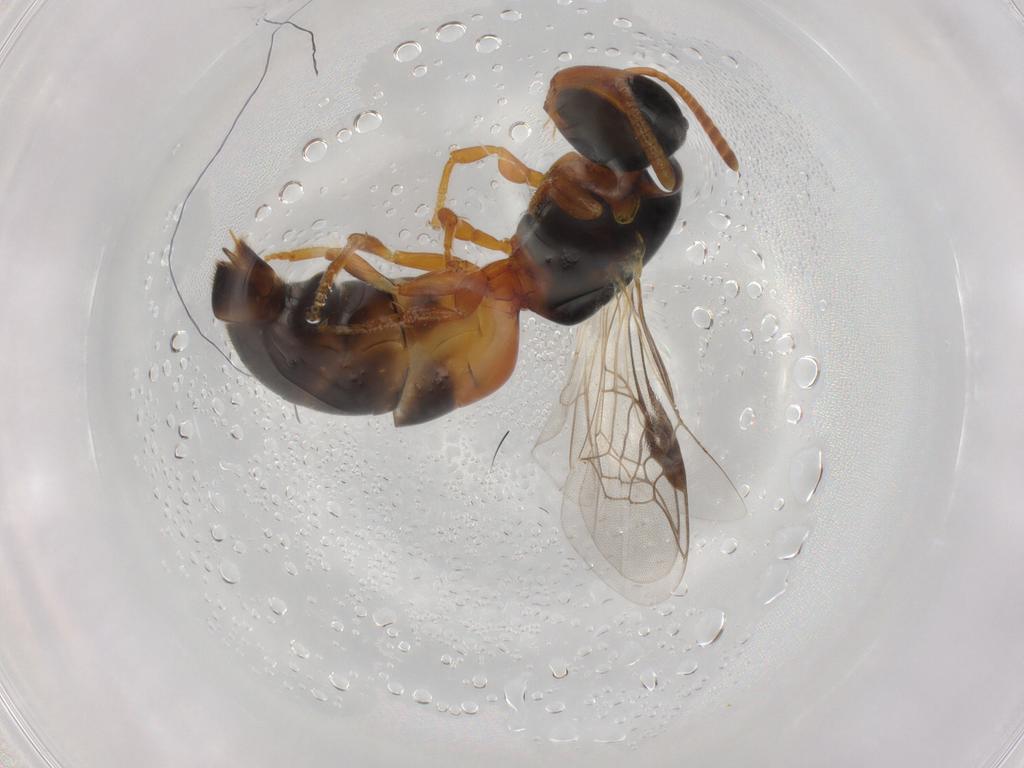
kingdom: Animalia
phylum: Arthropoda
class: Insecta
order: Hymenoptera
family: Colletidae
